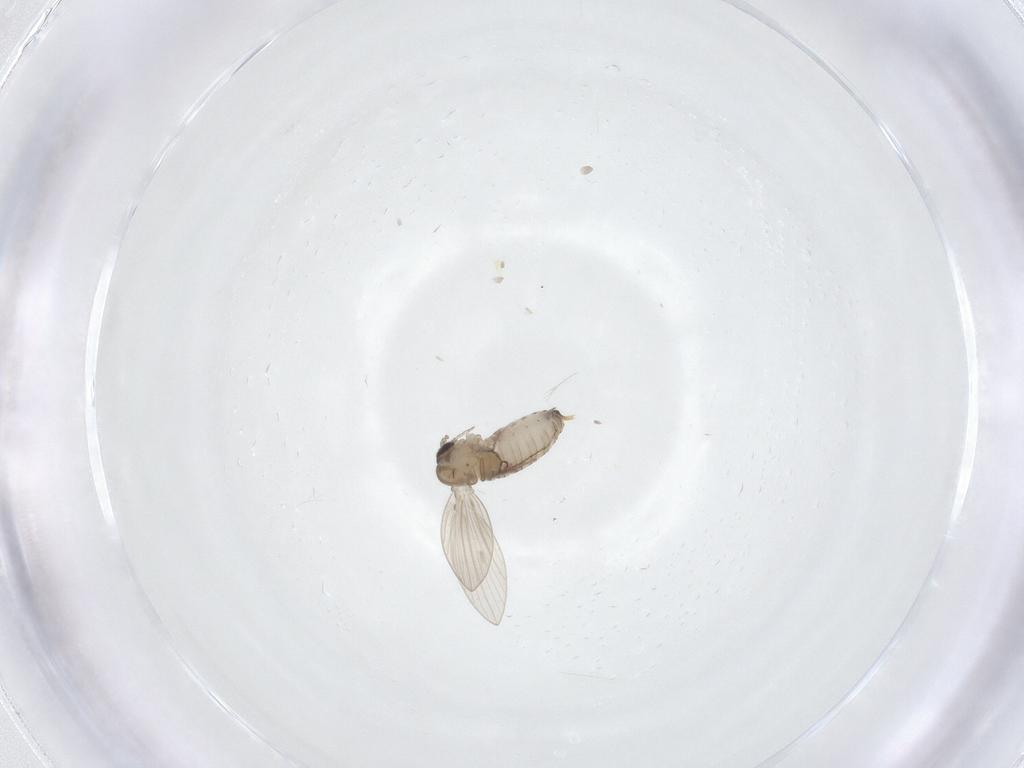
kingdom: Animalia
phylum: Arthropoda
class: Insecta
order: Diptera
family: Psychodidae
